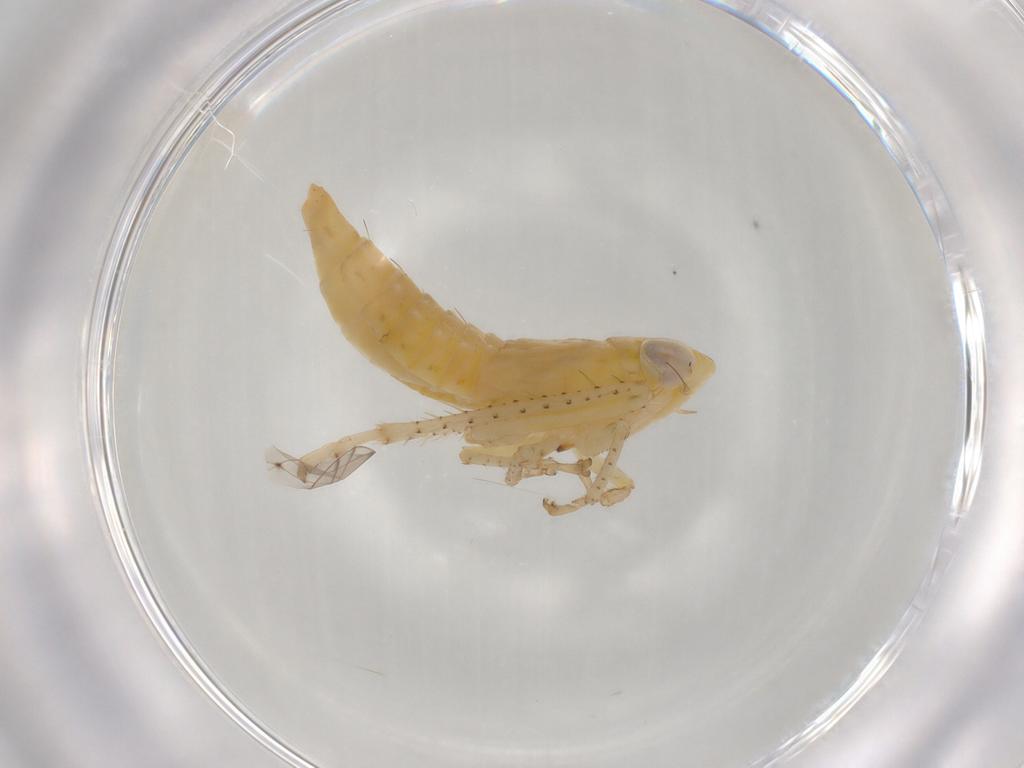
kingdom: Animalia
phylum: Arthropoda
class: Insecta
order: Hemiptera
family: Cicadellidae
